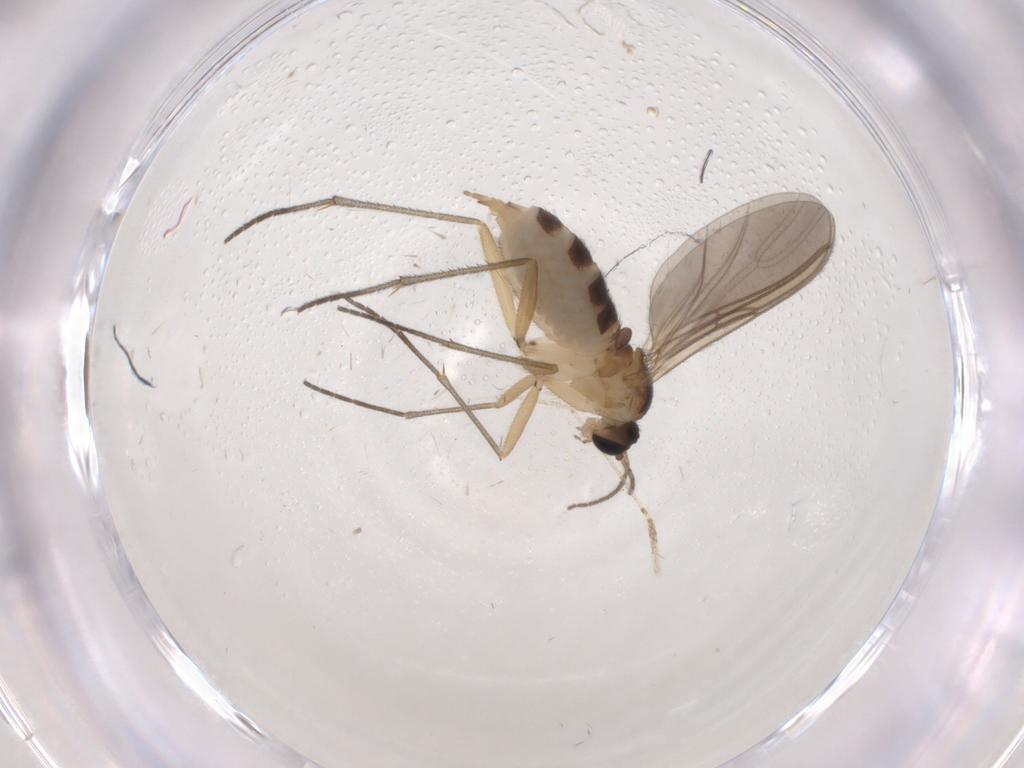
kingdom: Animalia
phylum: Arthropoda
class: Insecta
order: Diptera
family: Sciaridae
